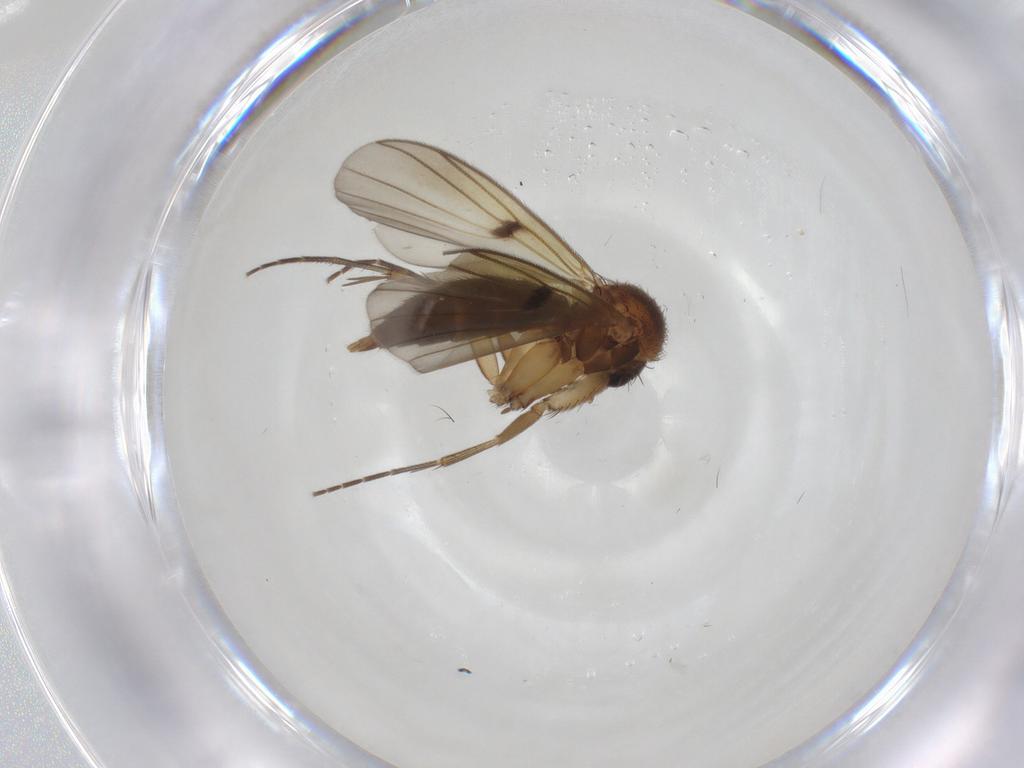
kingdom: Animalia
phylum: Arthropoda
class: Insecta
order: Diptera
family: Mycetophilidae
